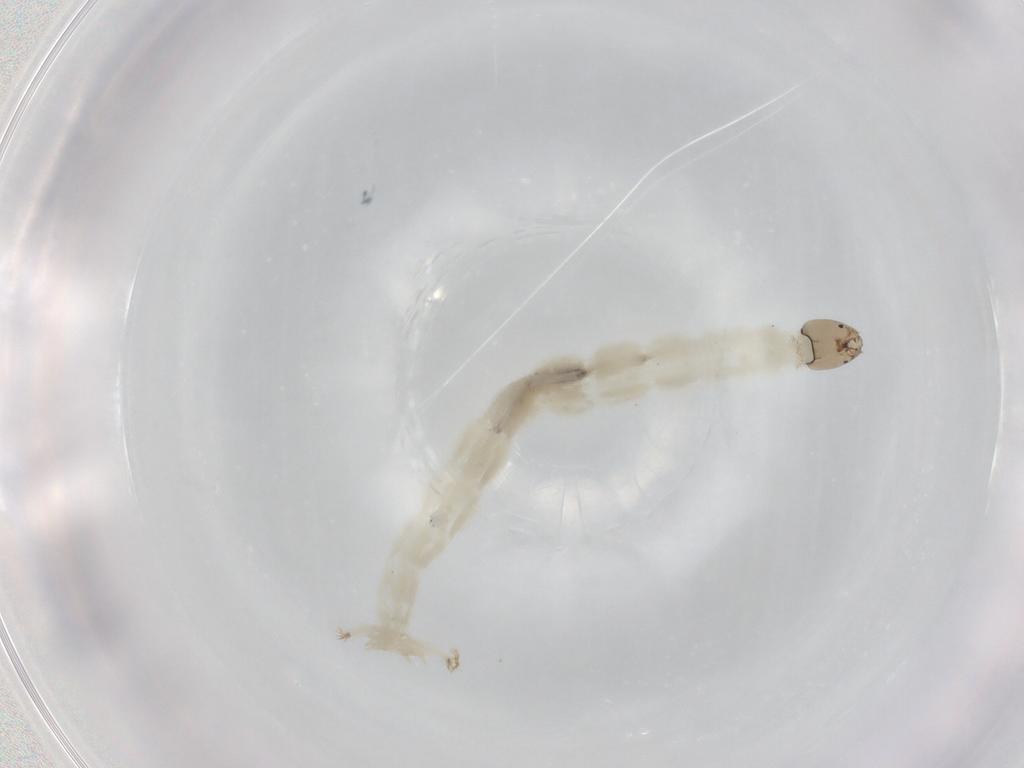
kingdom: Animalia
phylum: Arthropoda
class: Insecta
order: Diptera
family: Chironomidae
